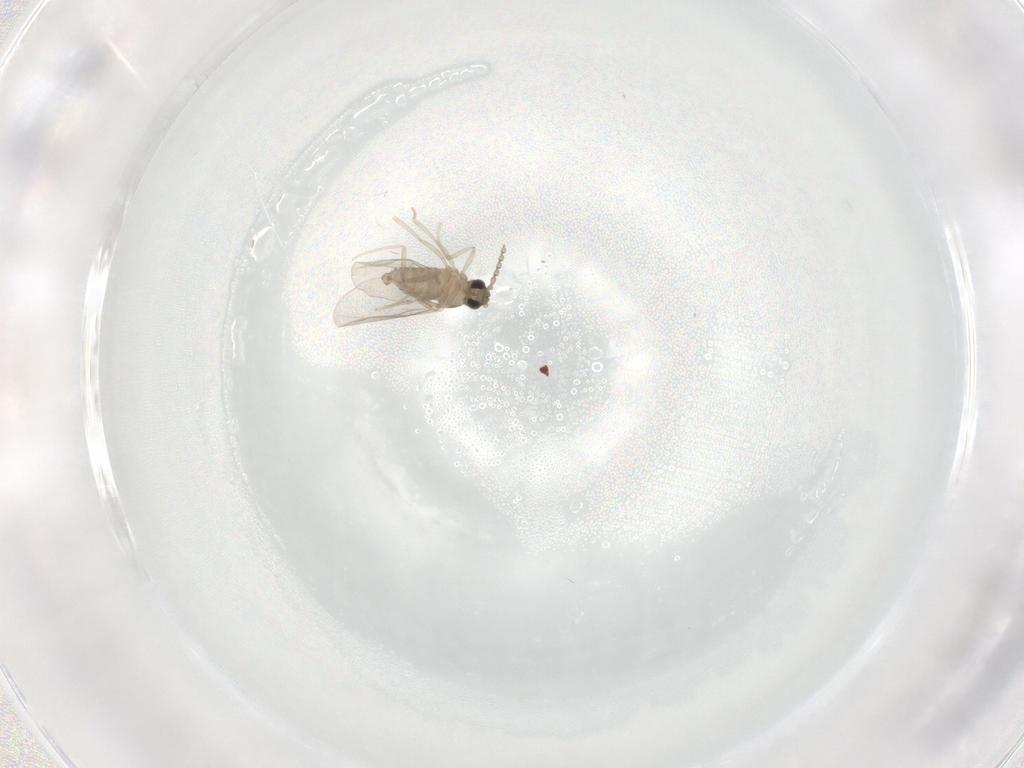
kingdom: Animalia
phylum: Arthropoda
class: Insecta
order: Diptera
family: Cecidomyiidae
